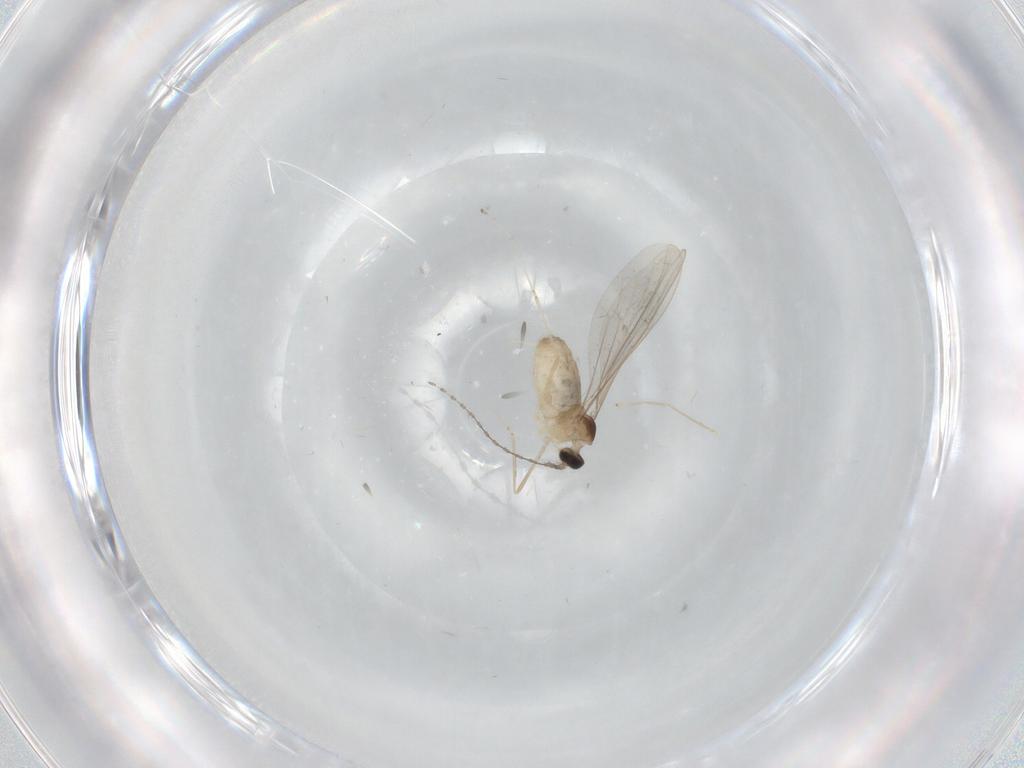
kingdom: Animalia
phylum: Arthropoda
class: Insecta
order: Diptera
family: Cecidomyiidae
